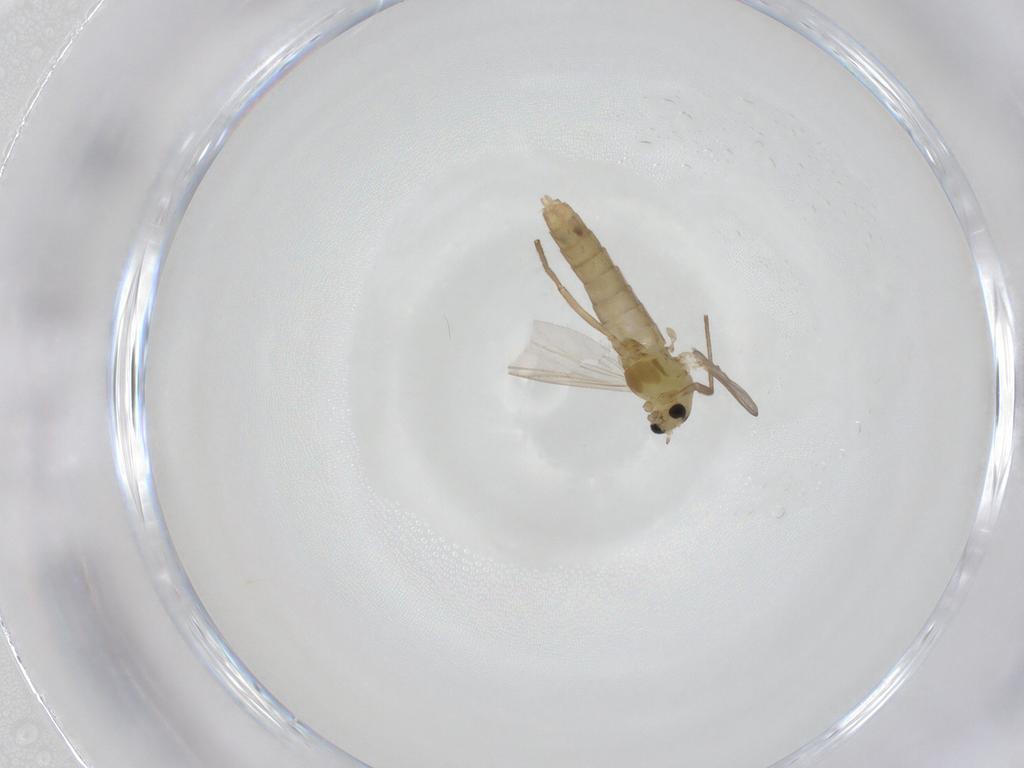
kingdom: Animalia
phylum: Arthropoda
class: Insecta
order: Diptera
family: Chironomidae
